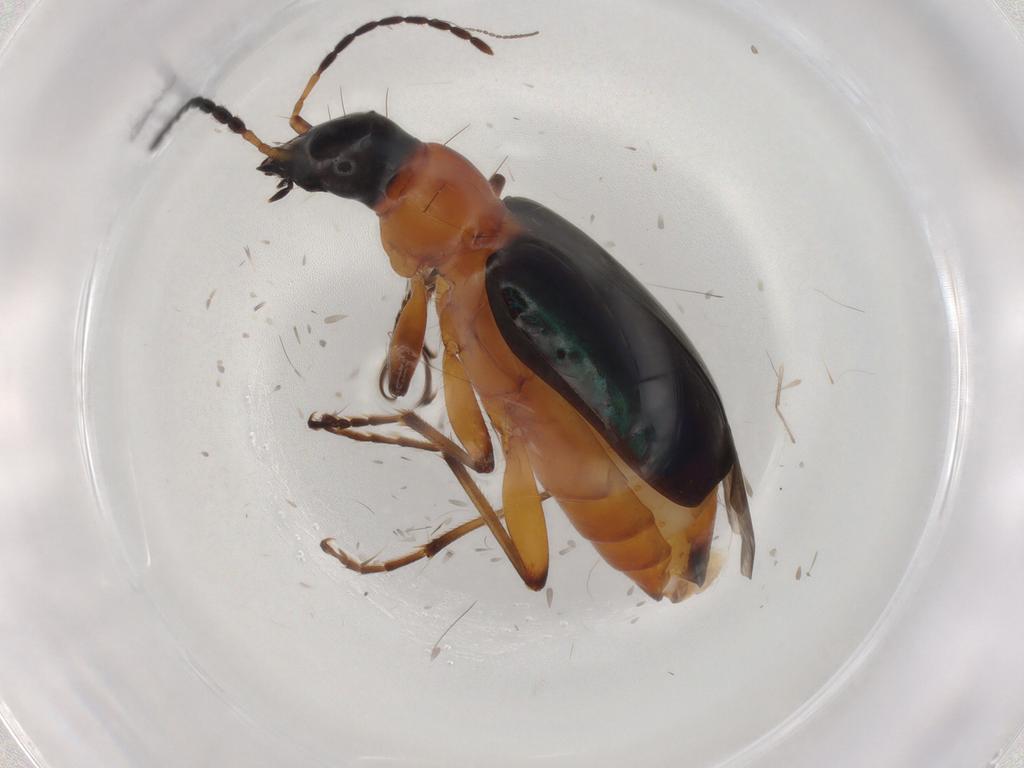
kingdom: Animalia
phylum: Arthropoda
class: Insecta
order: Coleoptera
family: Carabidae
